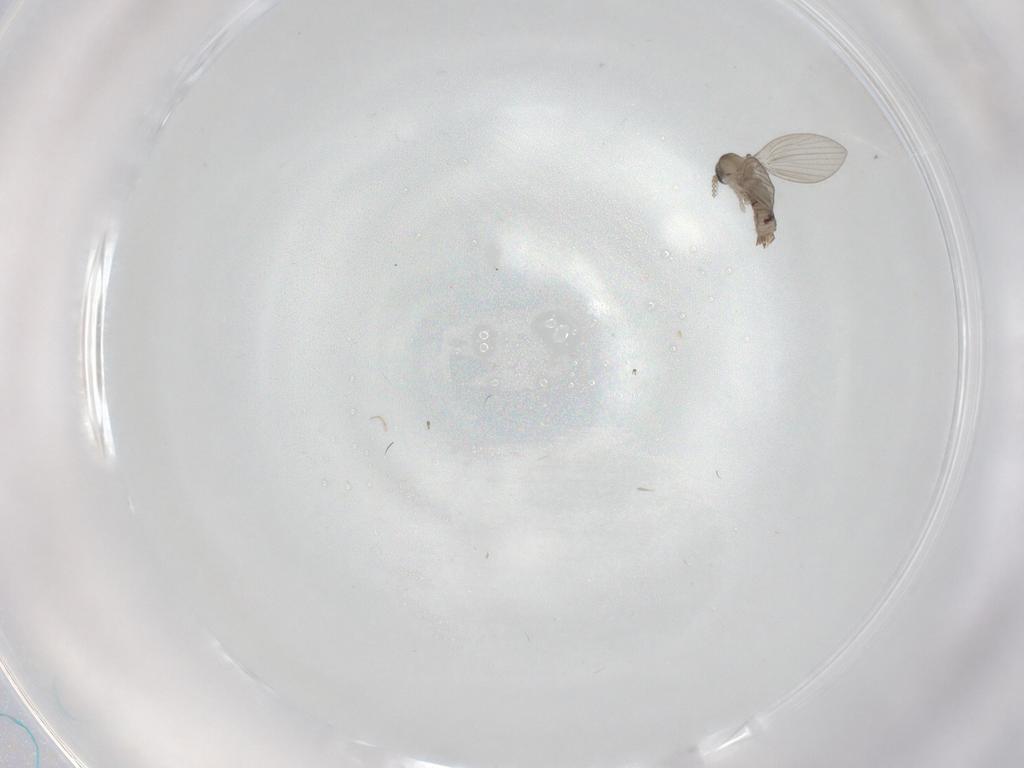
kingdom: Animalia
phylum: Arthropoda
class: Insecta
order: Diptera
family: Psychodidae
